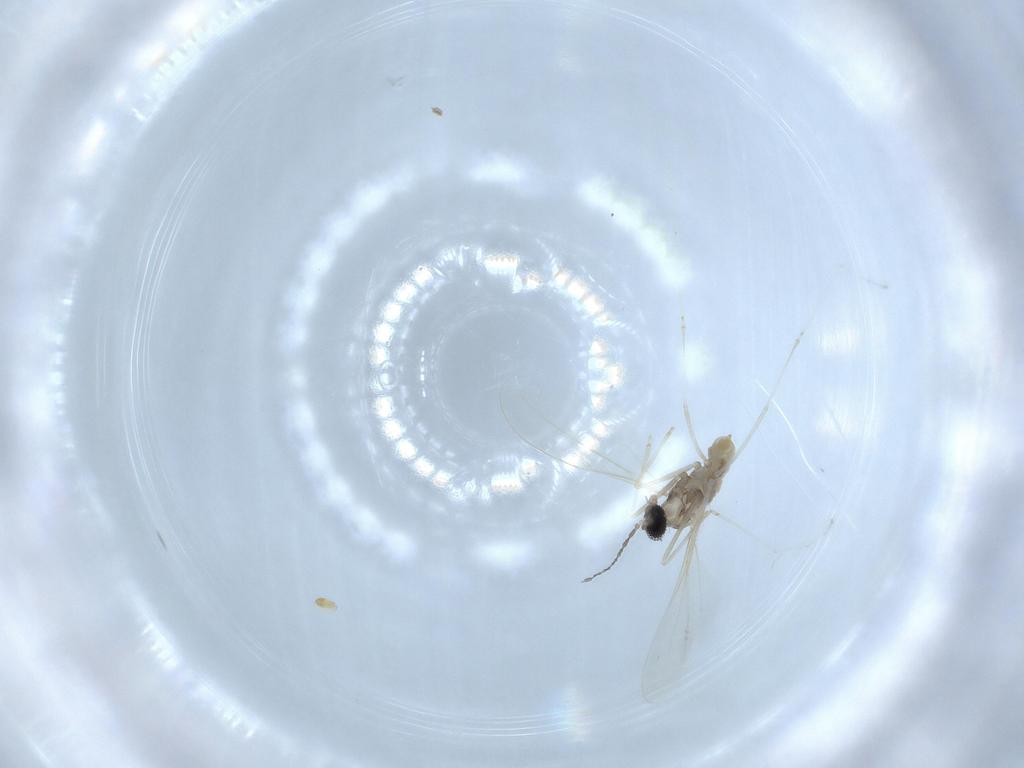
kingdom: Animalia
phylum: Arthropoda
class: Insecta
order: Diptera
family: Cecidomyiidae
